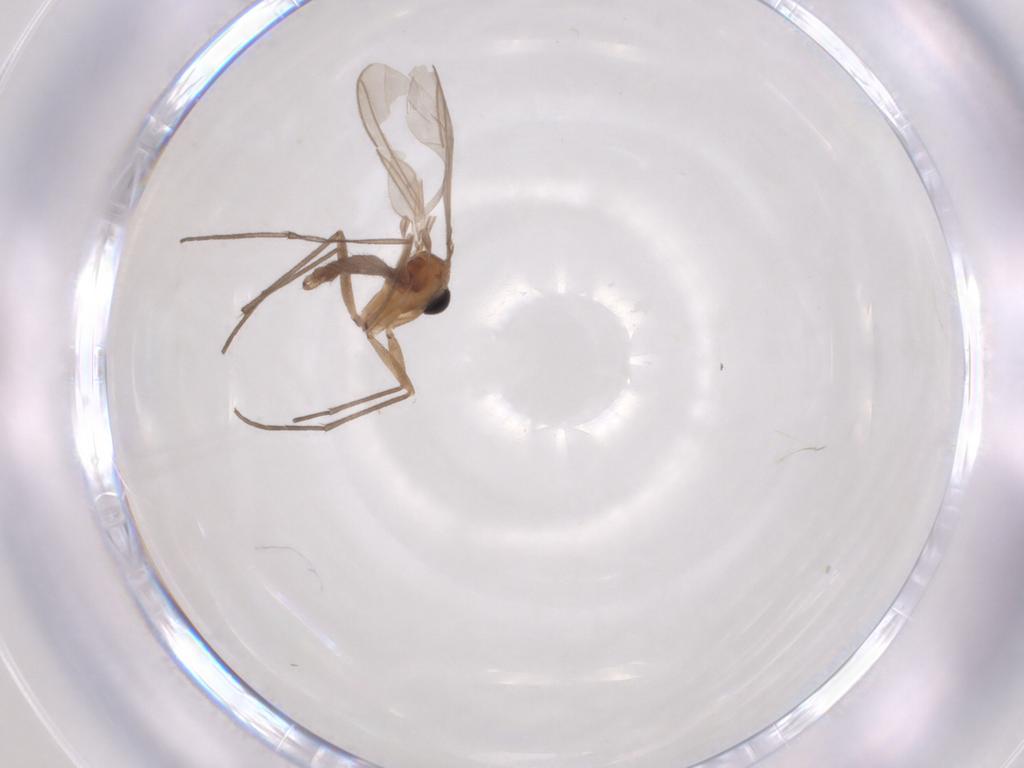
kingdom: Animalia
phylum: Arthropoda
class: Insecta
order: Diptera
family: Sciaridae
